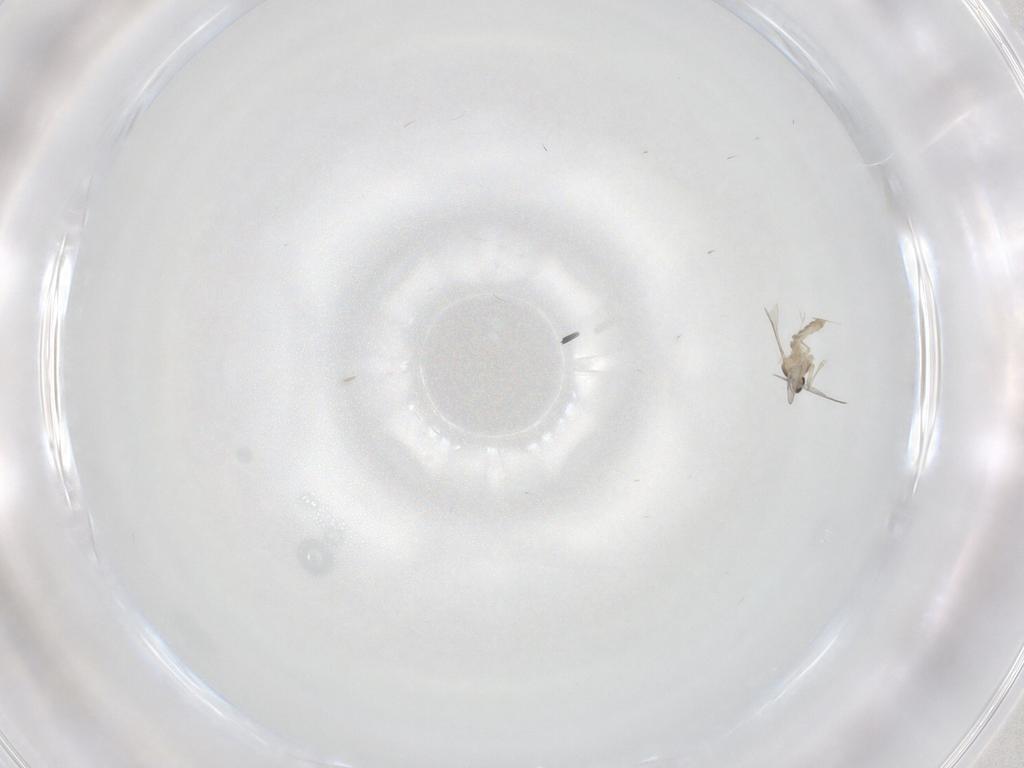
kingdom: Animalia
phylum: Arthropoda
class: Insecta
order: Diptera
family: Cecidomyiidae
